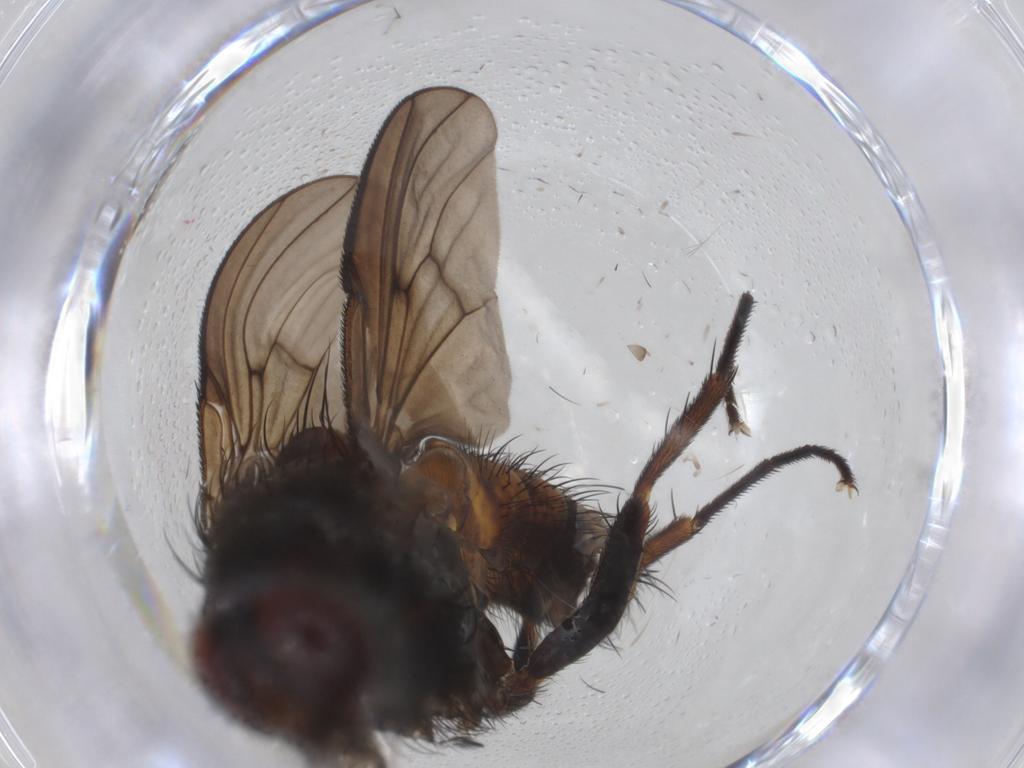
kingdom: Animalia
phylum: Arthropoda
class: Insecta
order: Diptera
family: Muscidae
